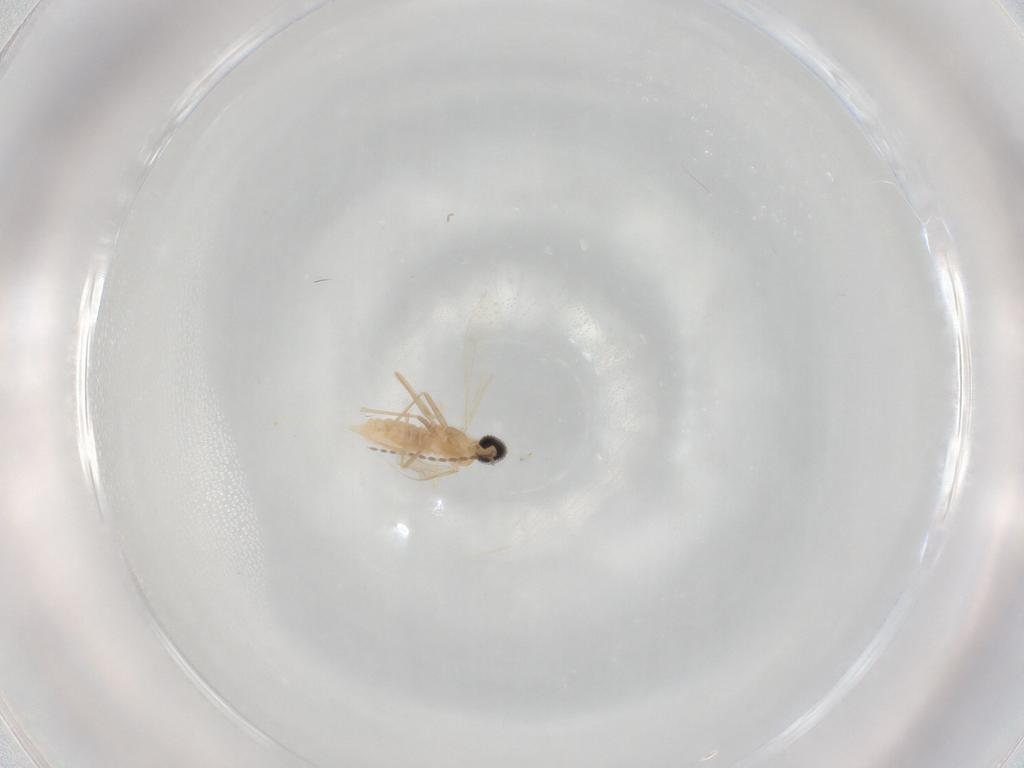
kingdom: Animalia
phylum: Arthropoda
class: Insecta
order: Diptera
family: Cecidomyiidae
